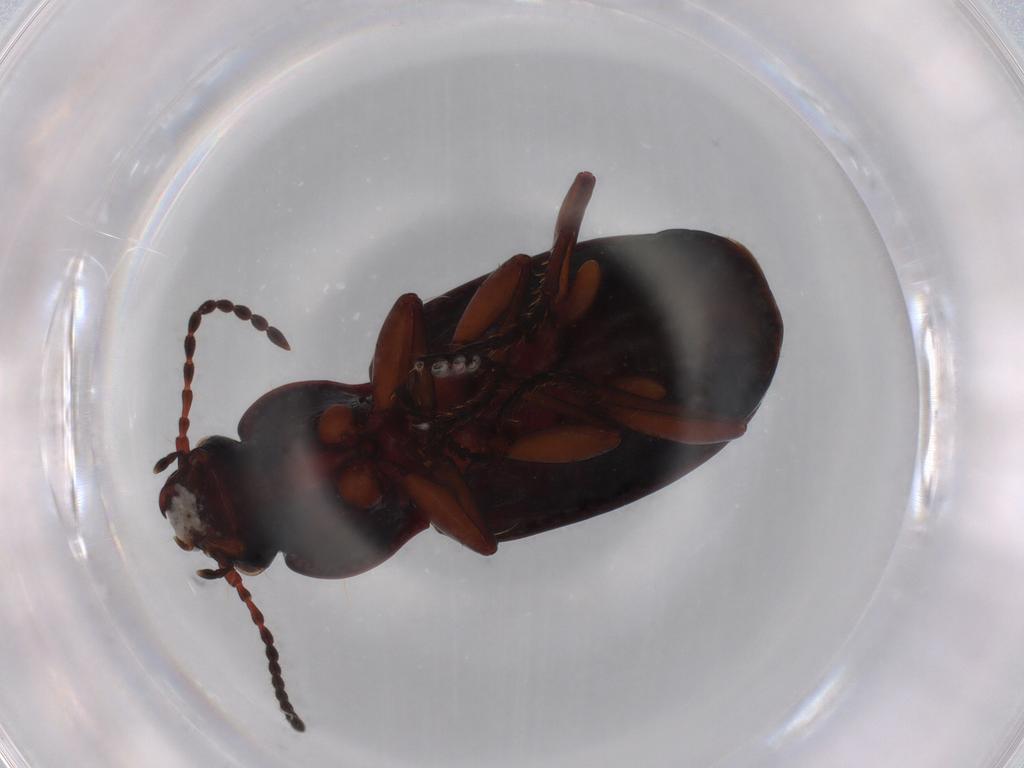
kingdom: Animalia
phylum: Arthropoda
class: Insecta
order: Coleoptera
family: Carabidae
